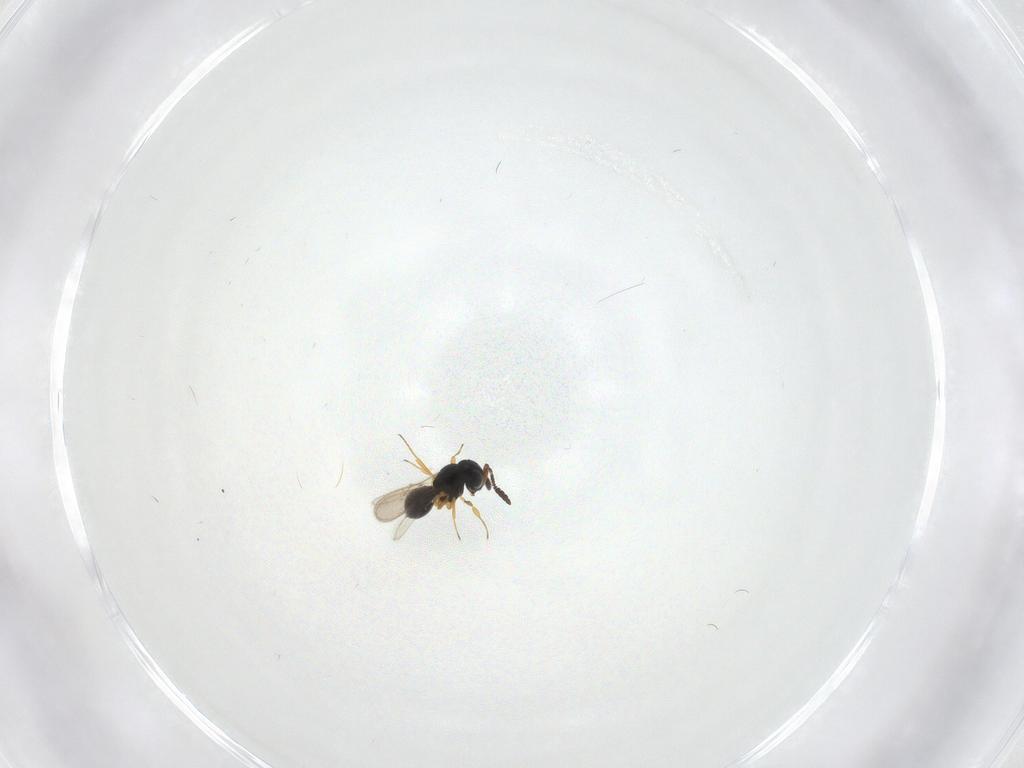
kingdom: Animalia
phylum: Arthropoda
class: Insecta
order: Hymenoptera
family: Scelionidae
